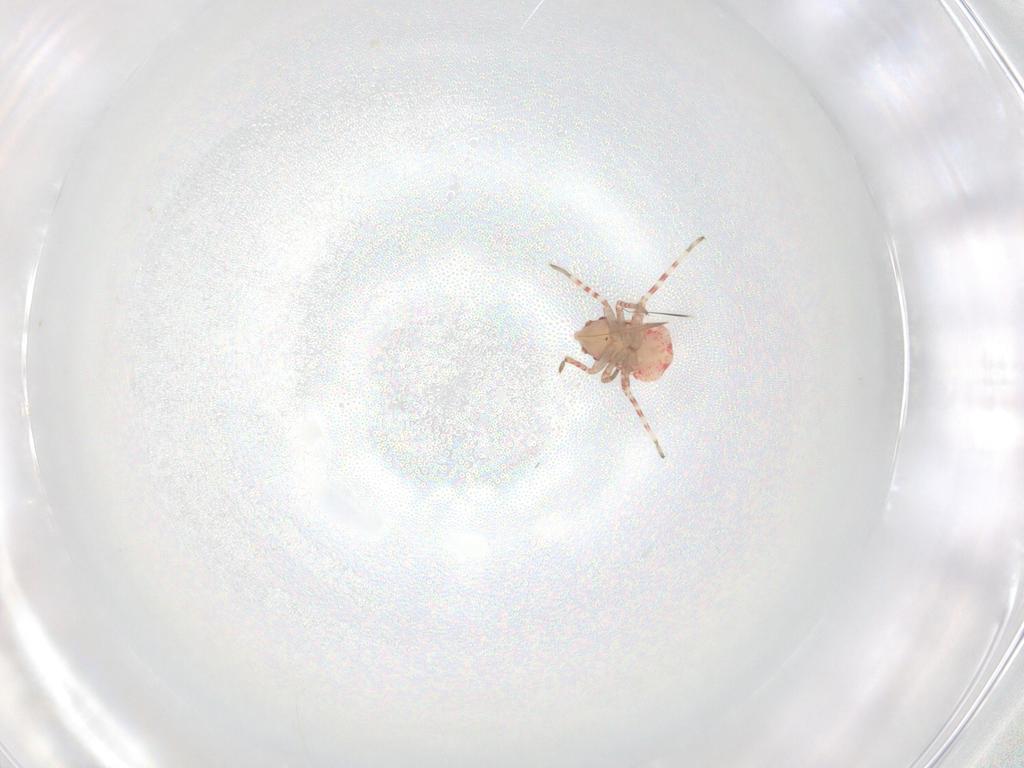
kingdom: Animalia
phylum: Arthropoda
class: Insecta
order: Hemiptera
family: Miridae
